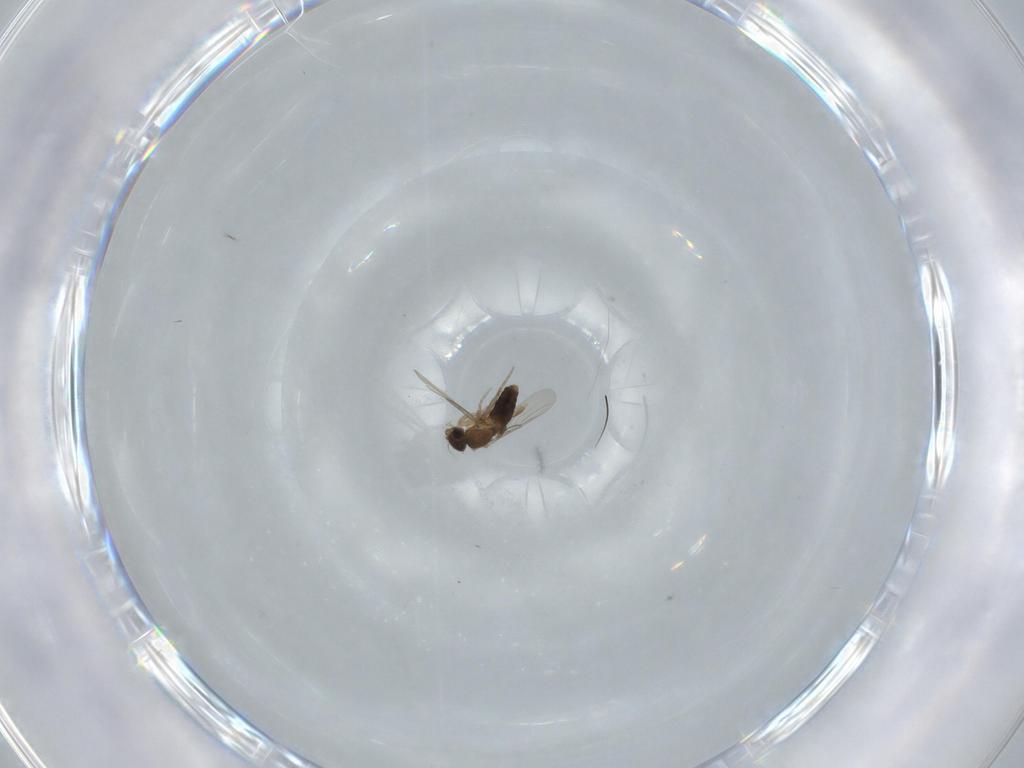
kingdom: Animalia
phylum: Arthropoda
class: Insecta
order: Diptera
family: Phoridae
